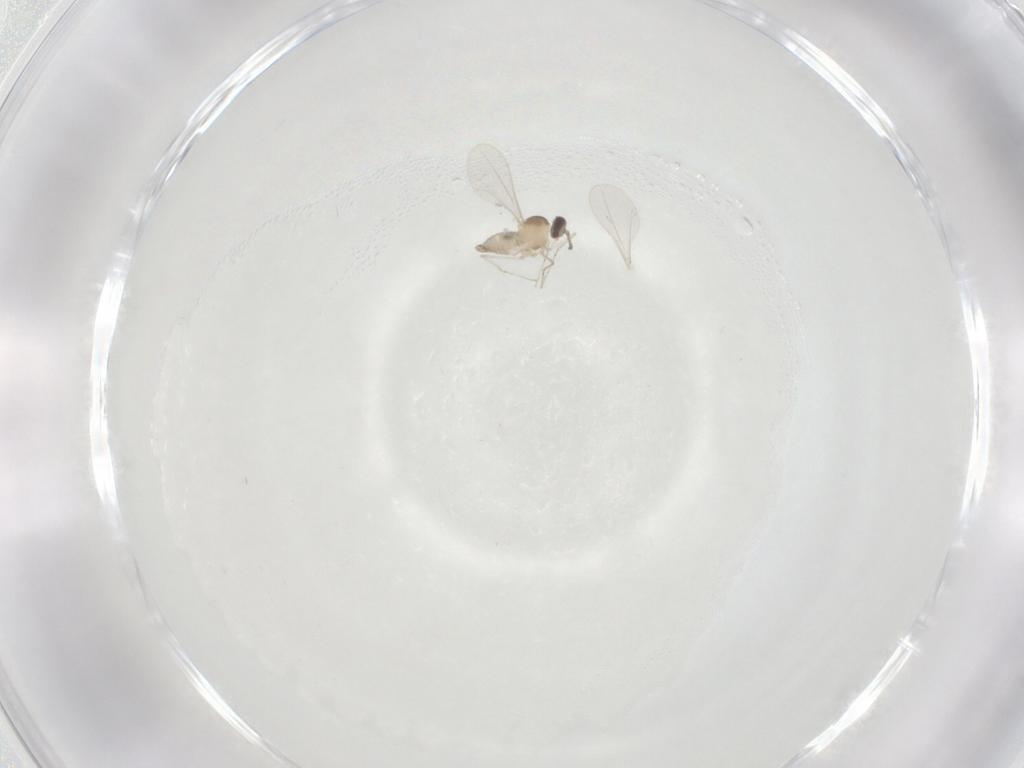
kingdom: Animalia
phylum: Arthropoda
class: Insecta
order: Diptera
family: Cecidomyiidae
